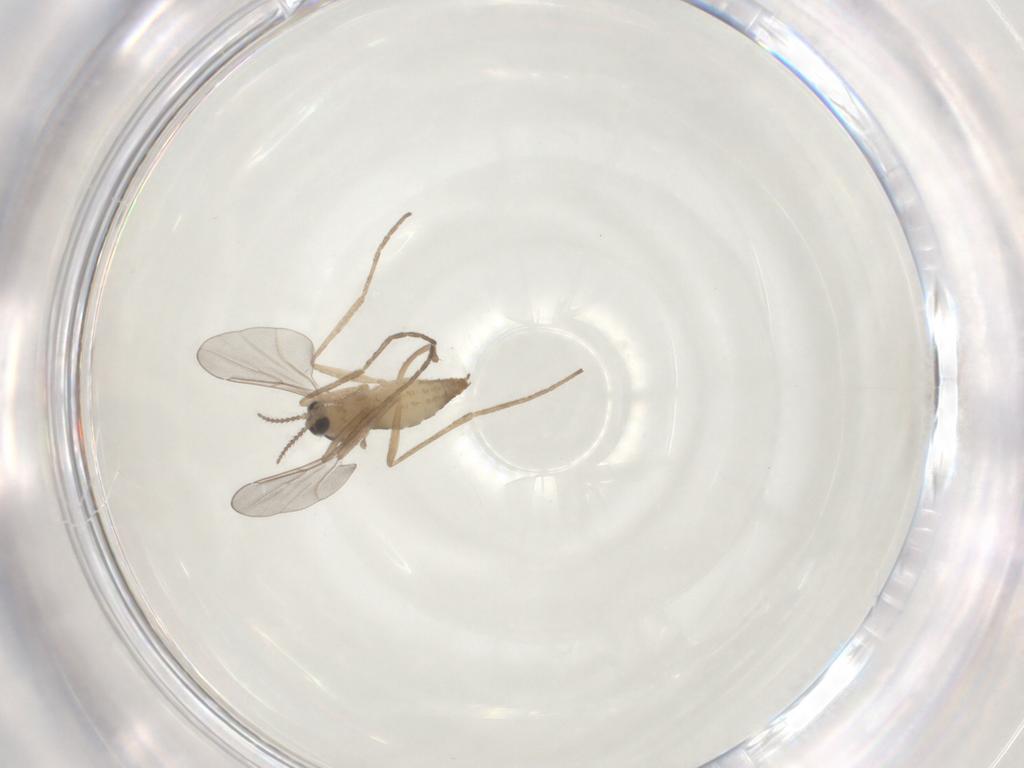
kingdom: Animalia
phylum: Arthropoda
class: Insecta
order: Diptera
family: Cecidomyiidae
